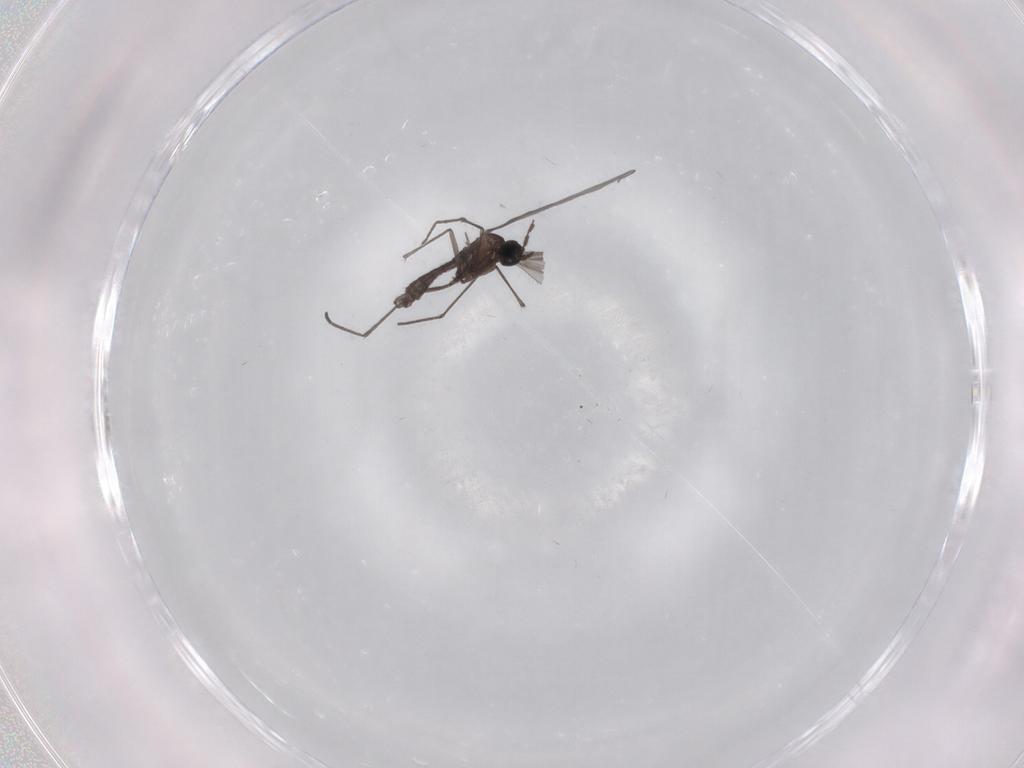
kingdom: Animalia
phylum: Arthropoda
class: Insecta
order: Diptera
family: Sciaridae
